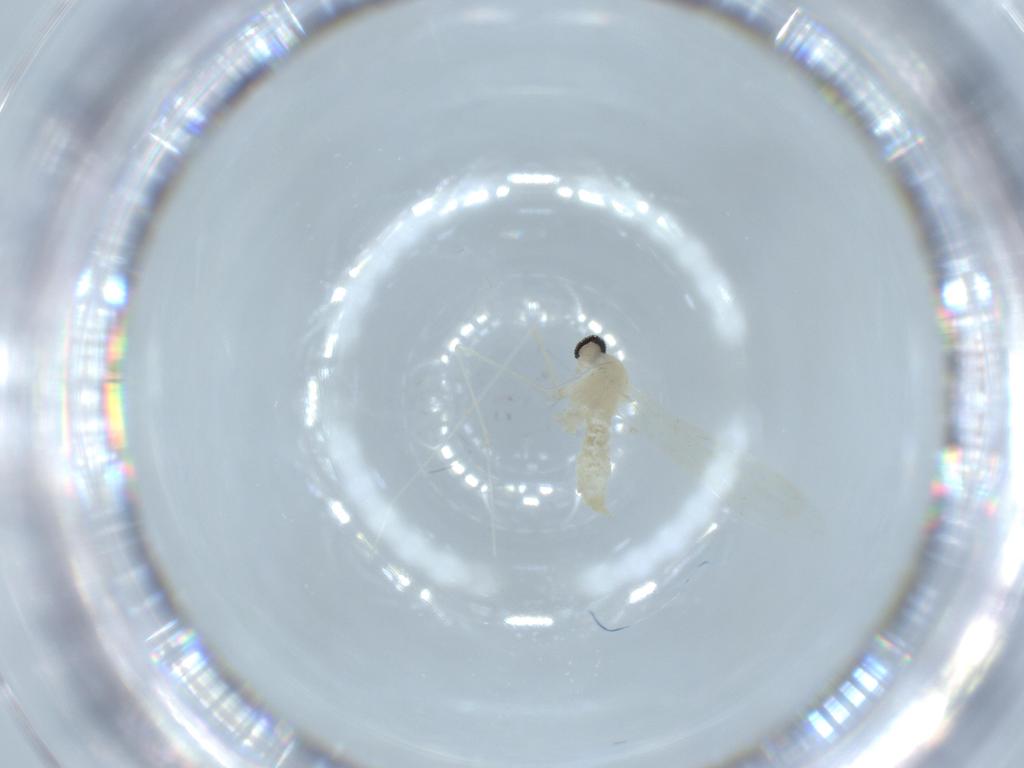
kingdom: Animalia
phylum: Arthropoda
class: Insecta
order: Diptera
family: Cecidomyiidae
